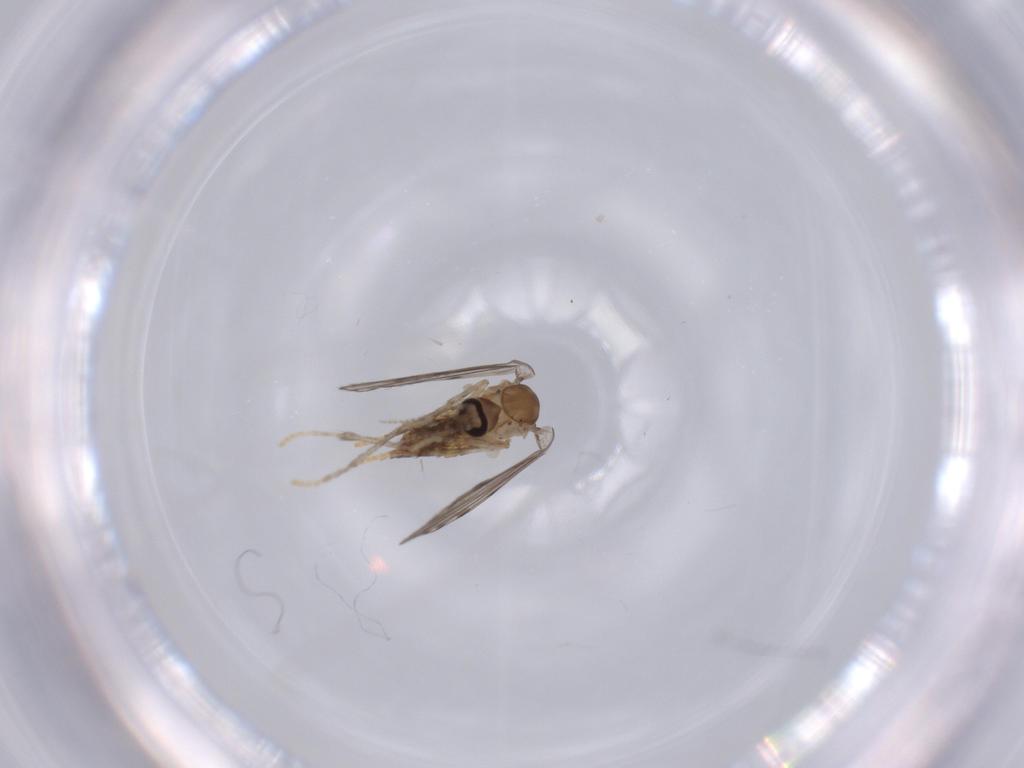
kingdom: Animalia
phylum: Arthropoda
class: Insecta
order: Diptera
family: Psychodidae
